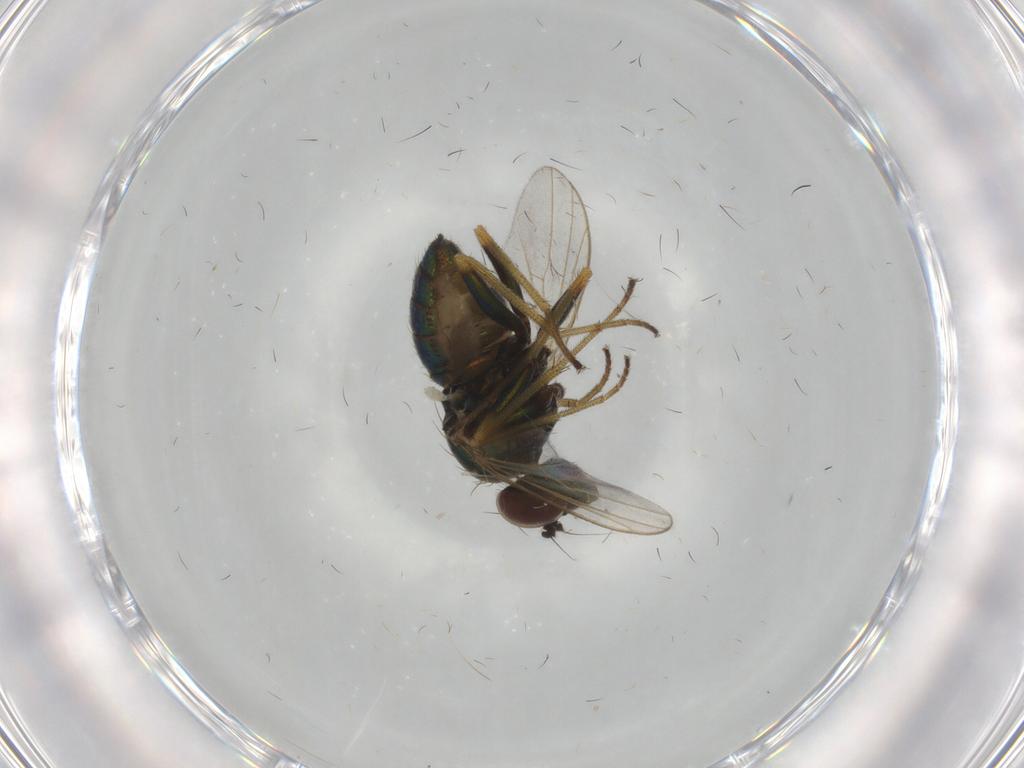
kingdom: Animalia
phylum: Arthropoda
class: Insecta
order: Diptera
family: Dolichopodidae
